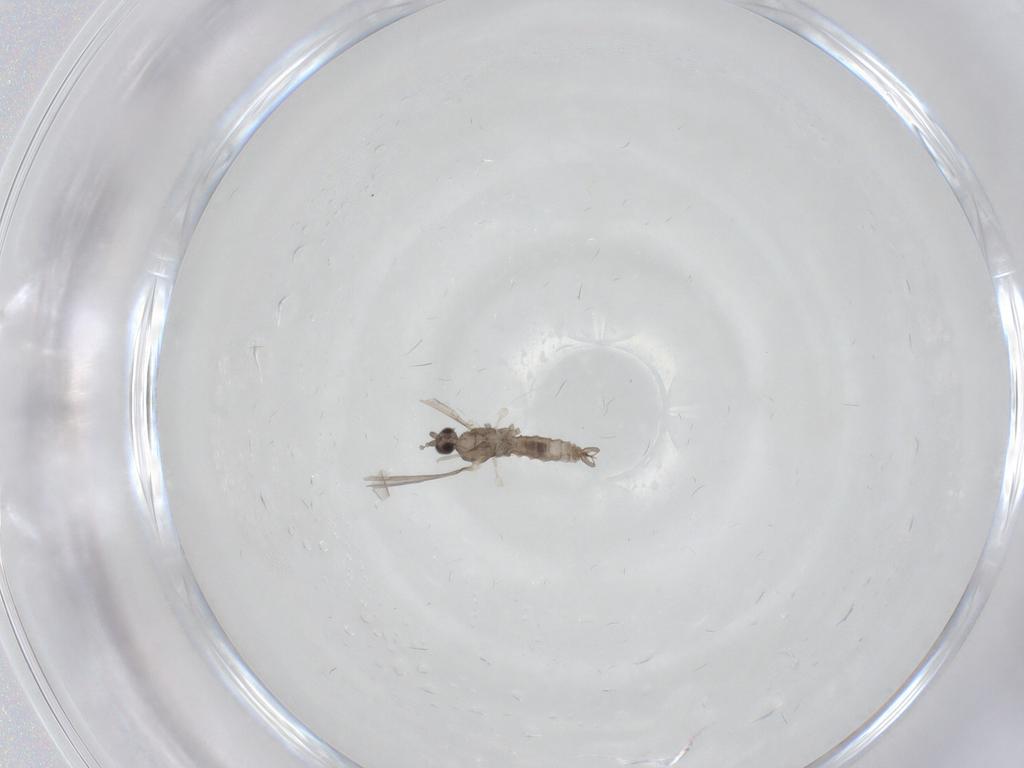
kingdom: Animalia
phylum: Arthropoda
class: Insecta
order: Diptera
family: Cecidomyiidae
